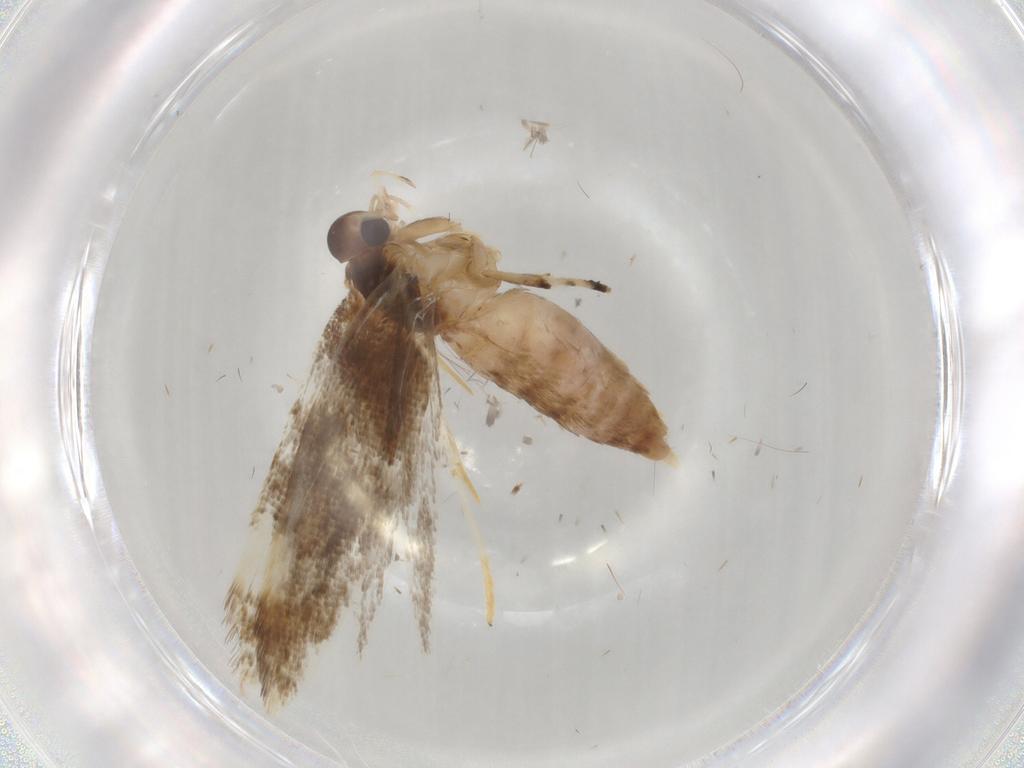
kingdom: Animalia
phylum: Arthropoda
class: Insecta
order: Lepidoptera
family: Noctuidae
